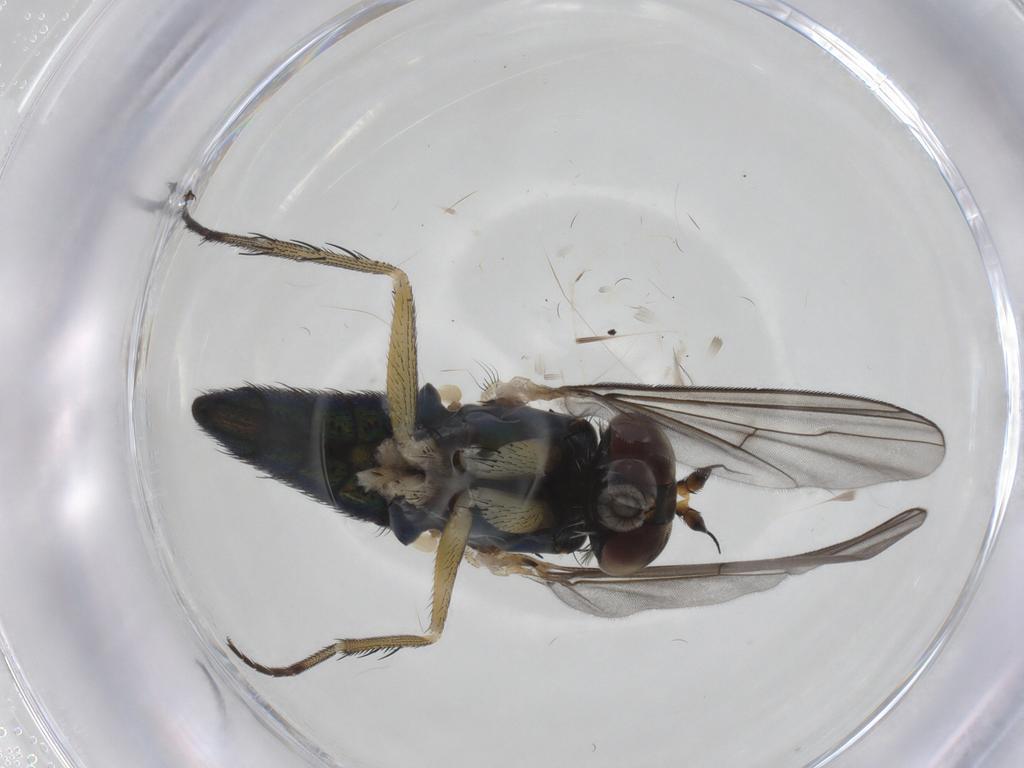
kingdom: Animalia
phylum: Arthropoda
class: Insecta
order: Diptera
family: Dolichopodidae
